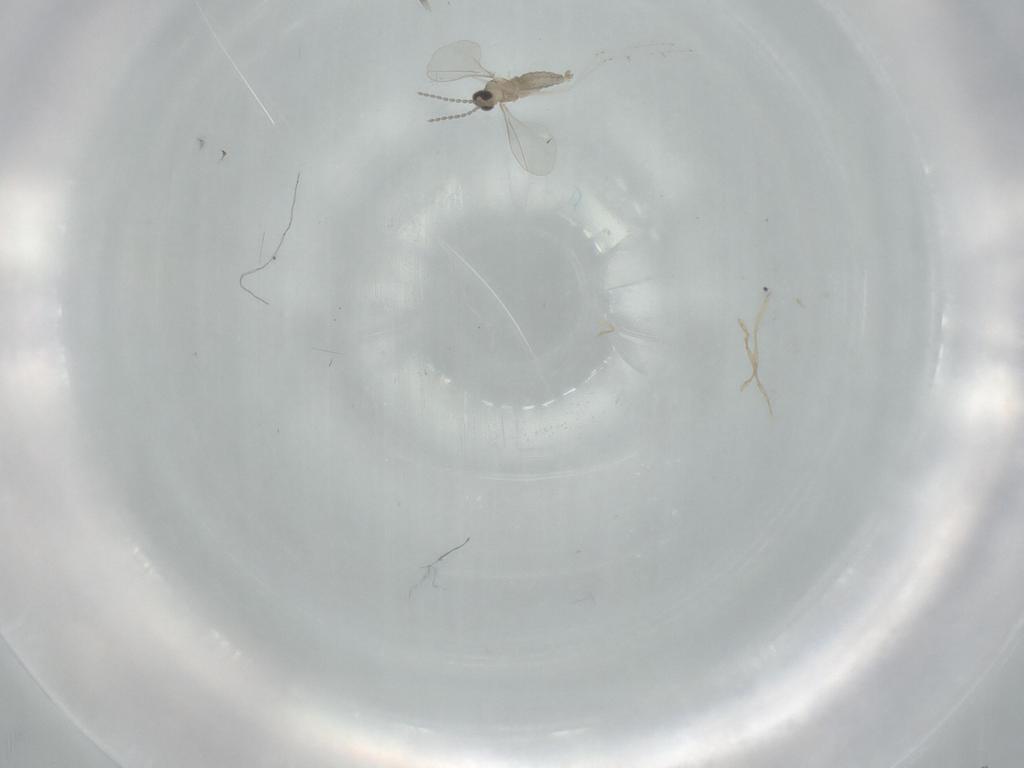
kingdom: Animalia
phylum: Arthropoda
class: Insecta
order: Diptera
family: Cecidomyiidae
